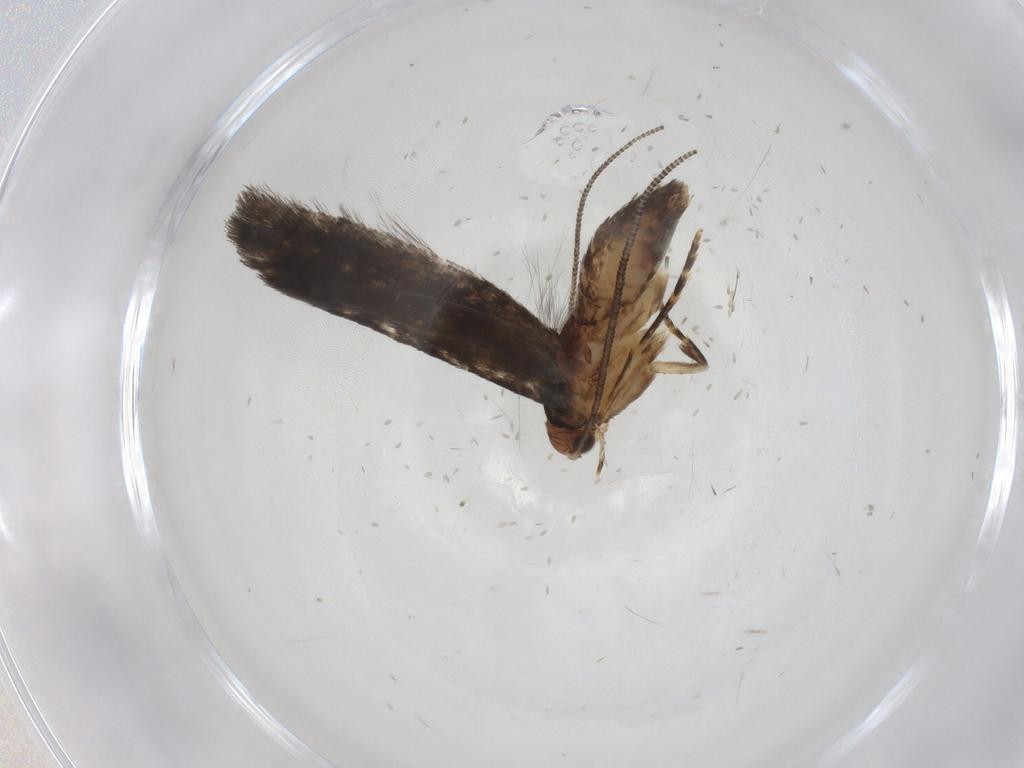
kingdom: Animalia
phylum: Arthropoda
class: Insecta
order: Lepidoptera
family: Tineidae
